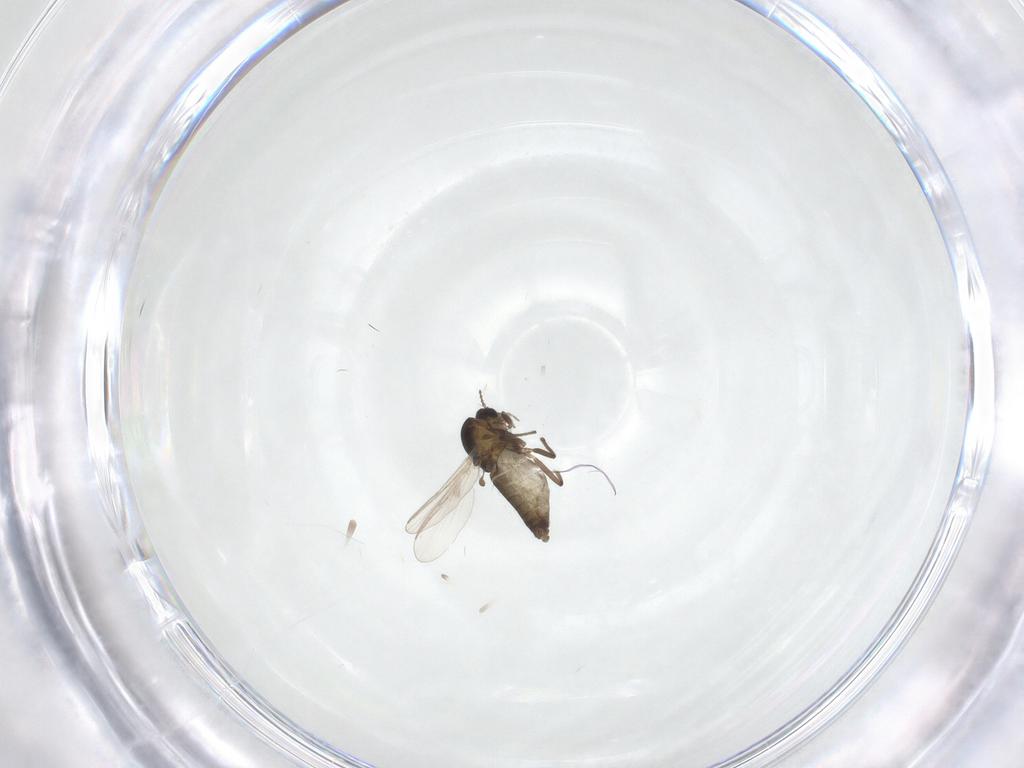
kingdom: Animalia
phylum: Arthropoda
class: Insecta
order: Diptera
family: Chironomidae
